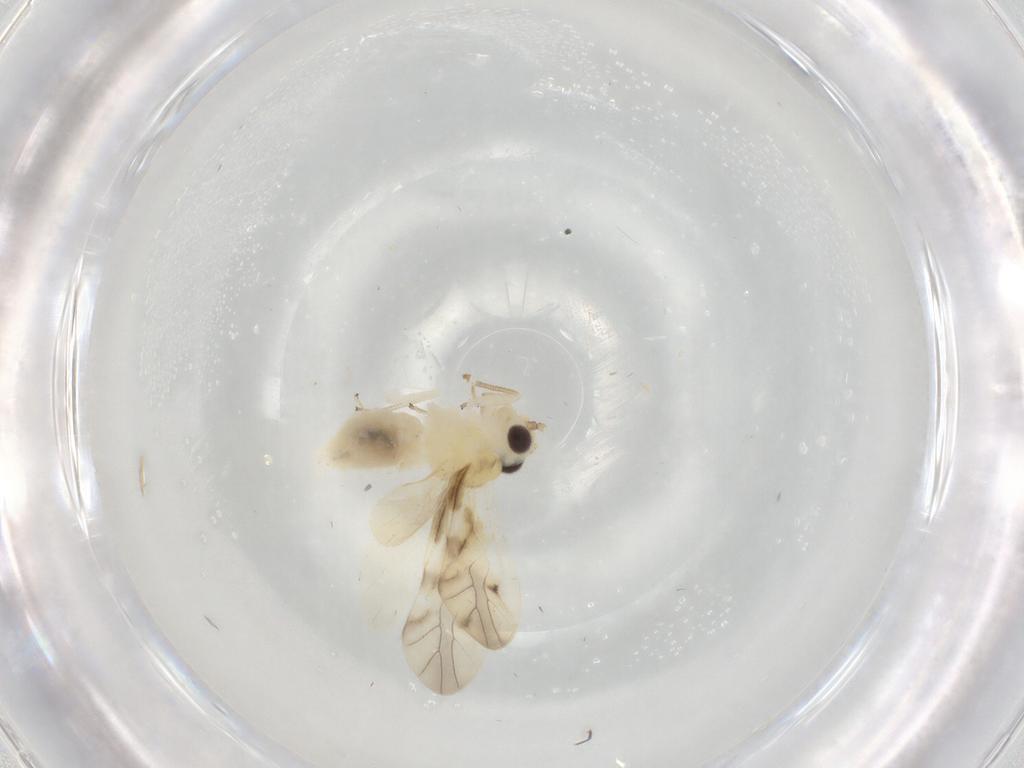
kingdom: Animalia
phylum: Arthropoda
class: Insecta
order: Psocodea
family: Caeciliusidae
